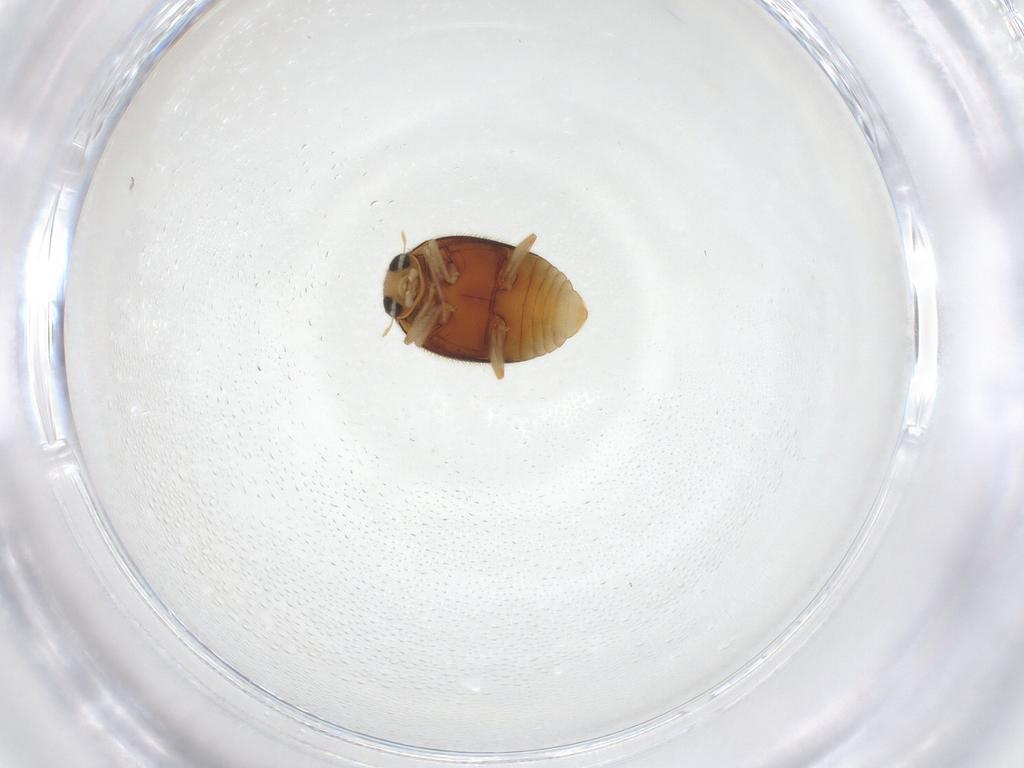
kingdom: Animalia
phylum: Arthropoda
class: Insecta
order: Coleoptera
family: Coccinellidae
